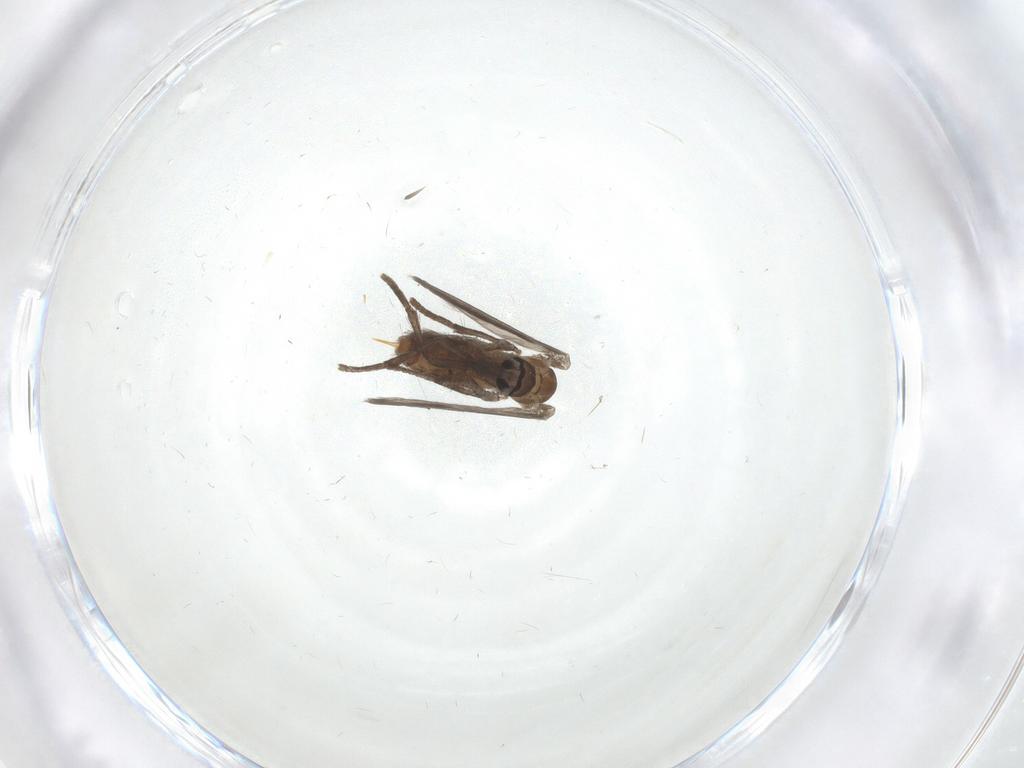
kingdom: Animalia
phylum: Arthropoda
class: Insecta
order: Diptera
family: Psychodidae
